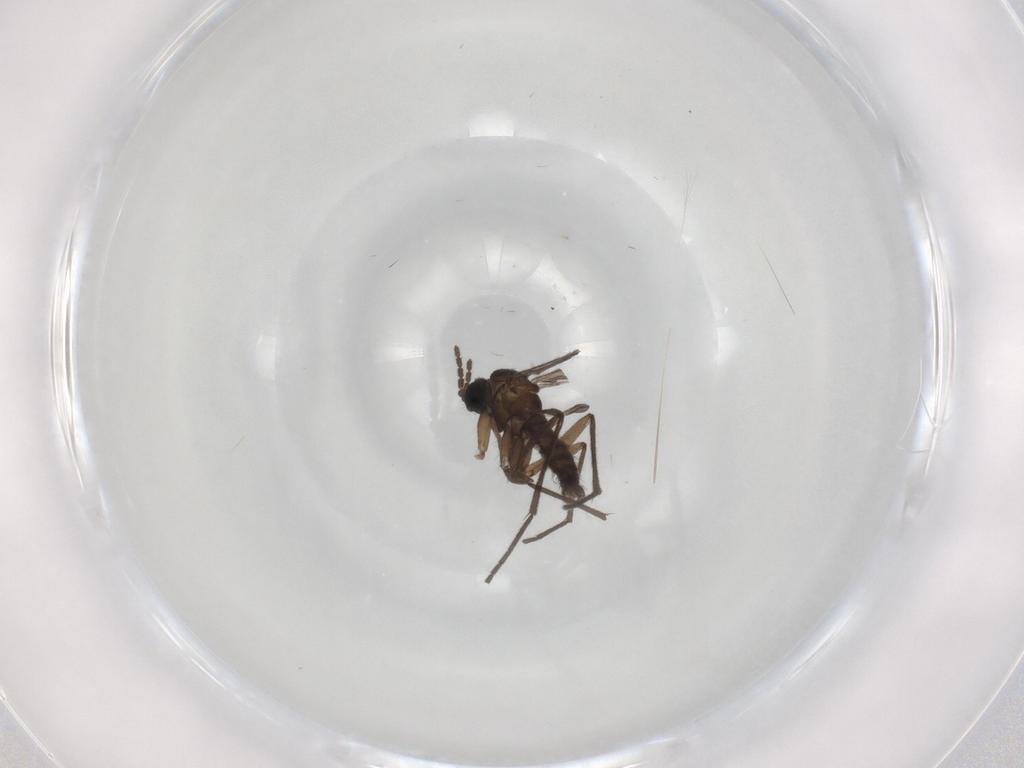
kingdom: Animalia
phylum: Arthropoda
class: Insecta
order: Diptera
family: Sciaridae
